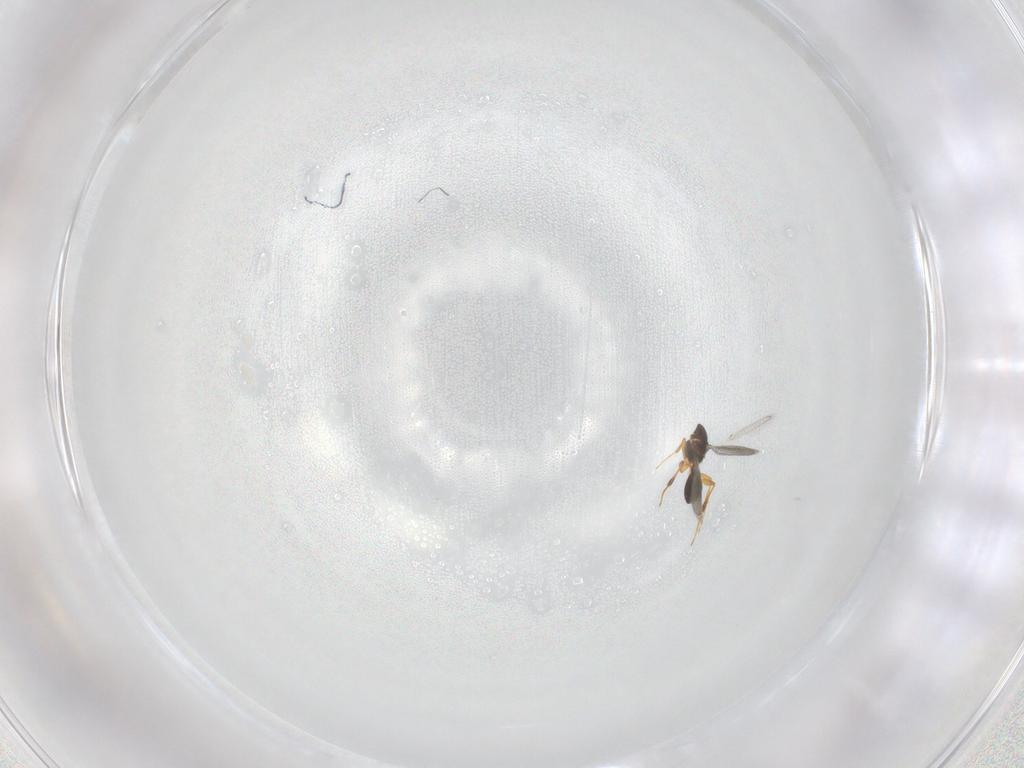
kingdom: Animalia
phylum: Arthropoda
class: Insecta
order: Hymenoptera
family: Platygastridae
